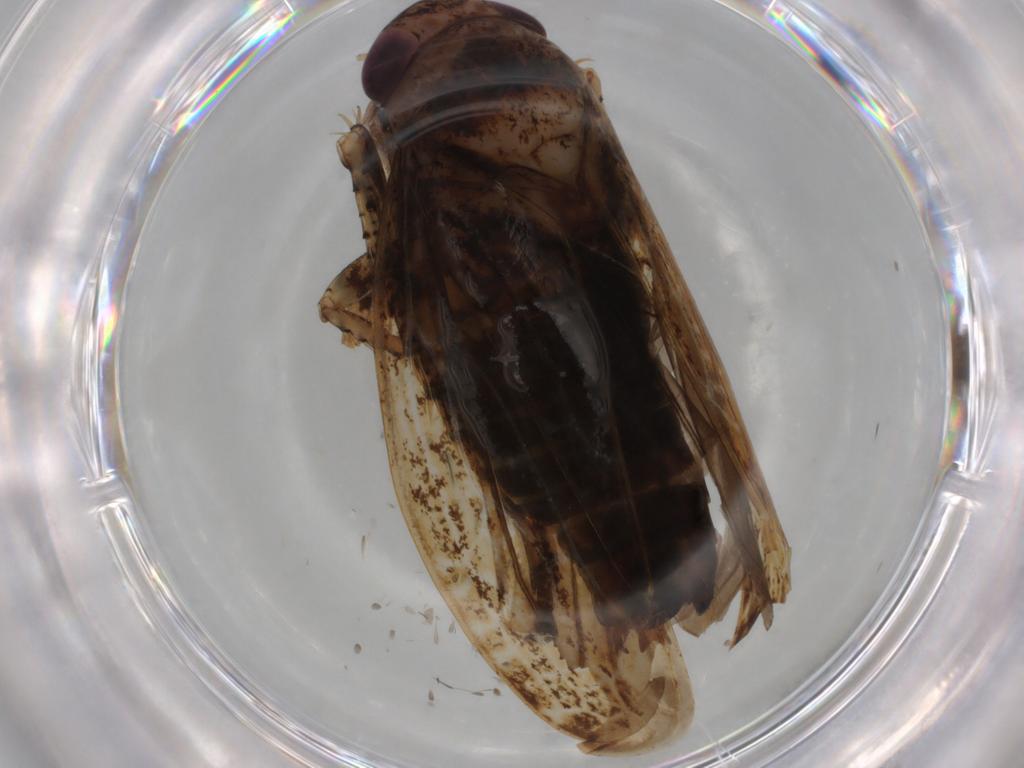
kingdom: Animalia
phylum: Arthropoda
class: Insecta
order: Hemiptera
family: Cicadellidae
